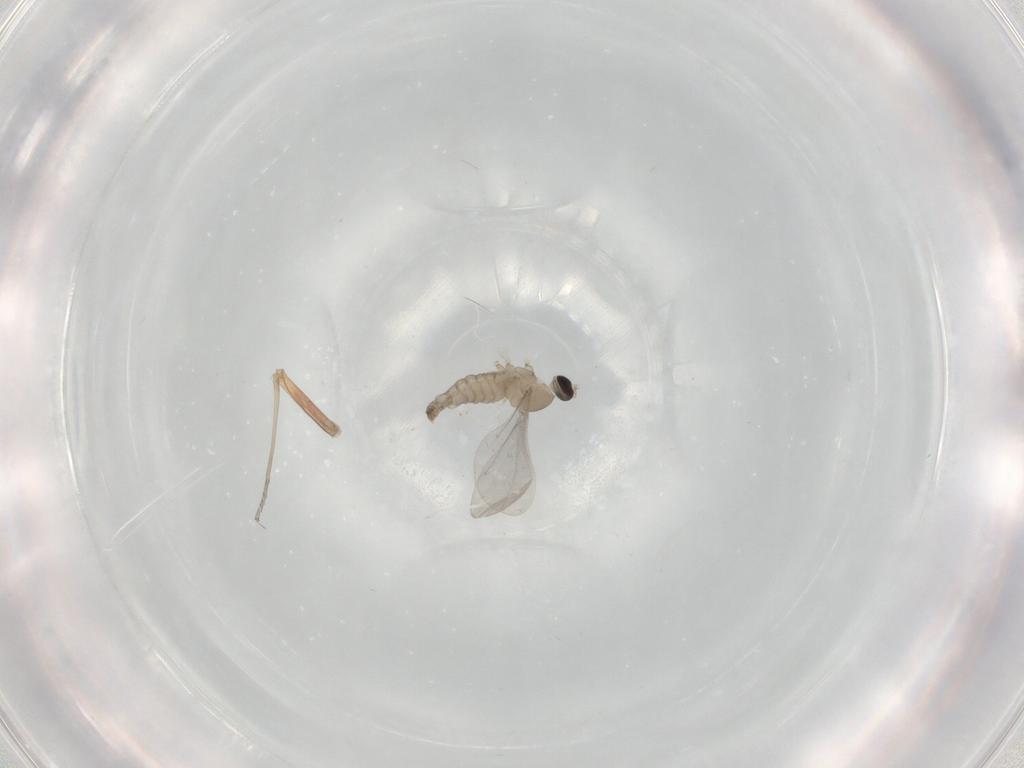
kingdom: Animalia
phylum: Arthropoda
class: Insecta
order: Diptera
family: Cecidomyiidae
